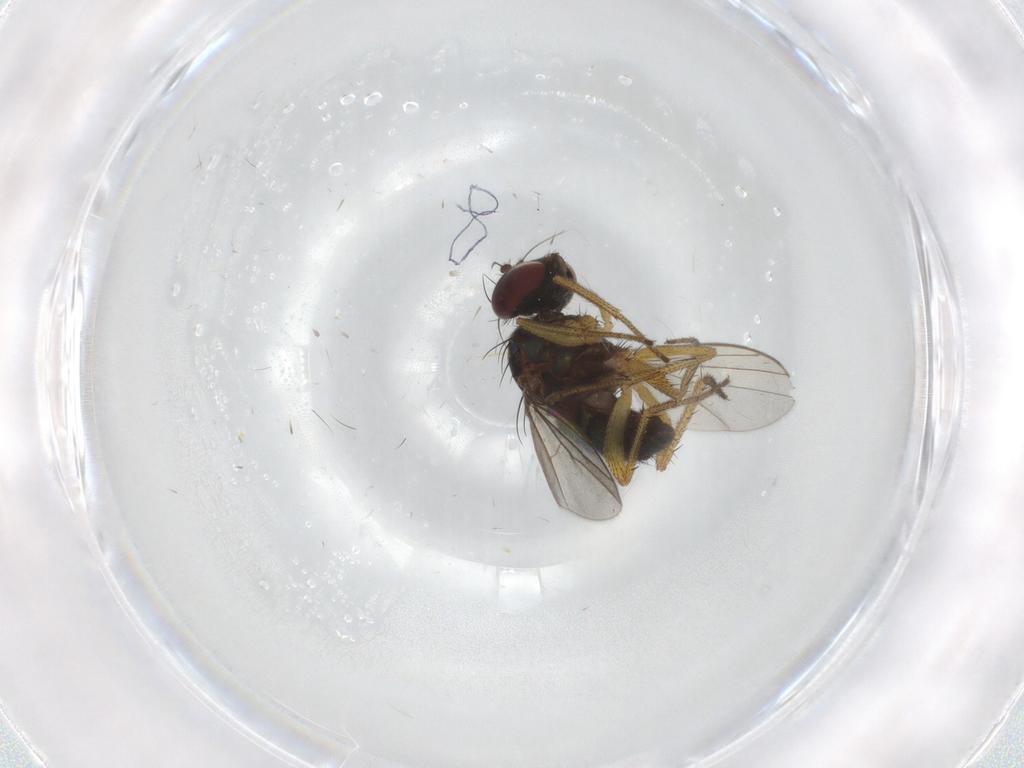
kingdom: Animalia
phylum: Arthropoda
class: Insecta
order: Diptera
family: Sciaridae
